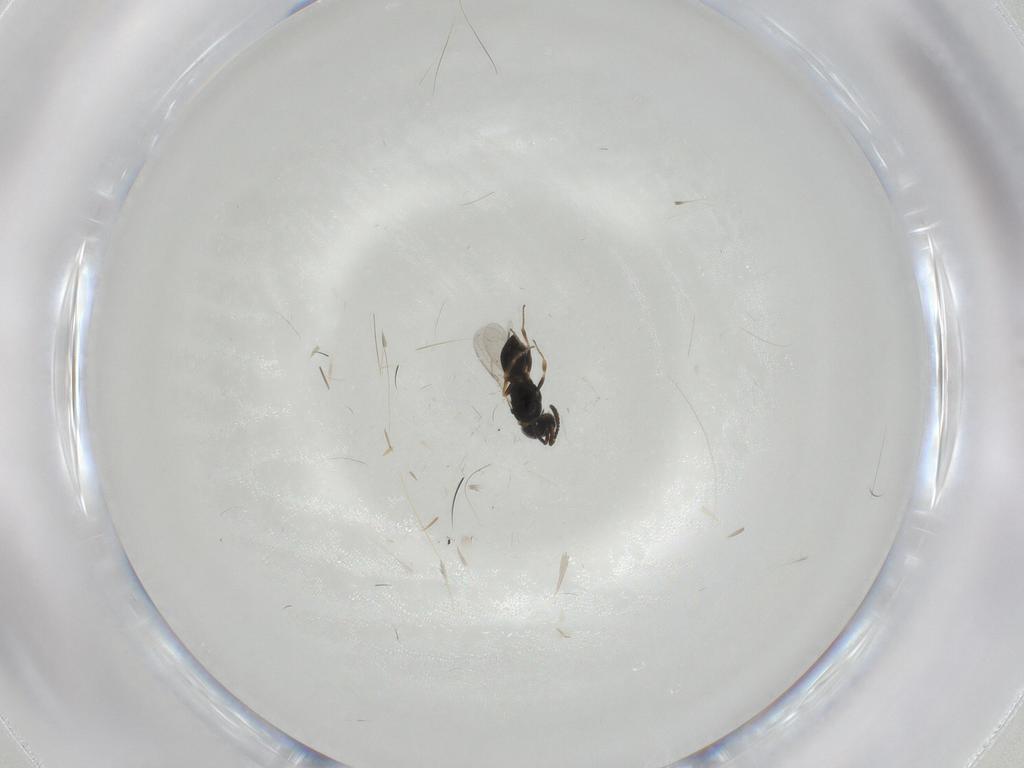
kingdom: Animalia
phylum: Arthropoda
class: Insecta
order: Hymenoptera
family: Scelionidae
